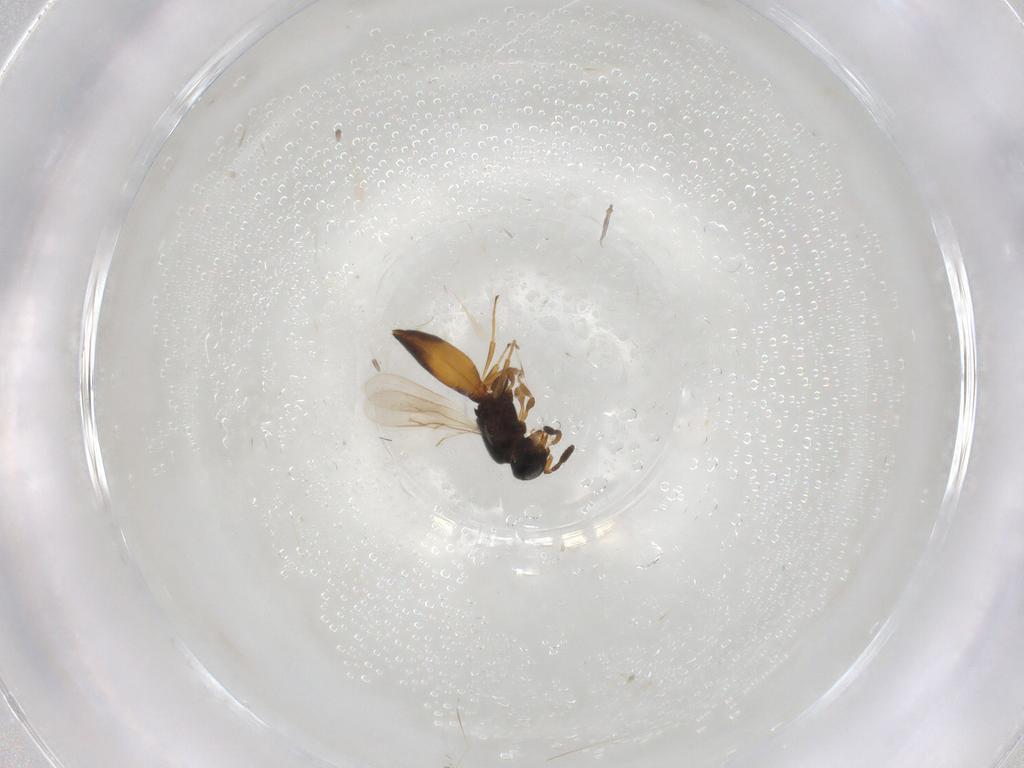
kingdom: Animalia
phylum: Arthropoda
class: Insecta
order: Hymenoptera
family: Scelionidae
